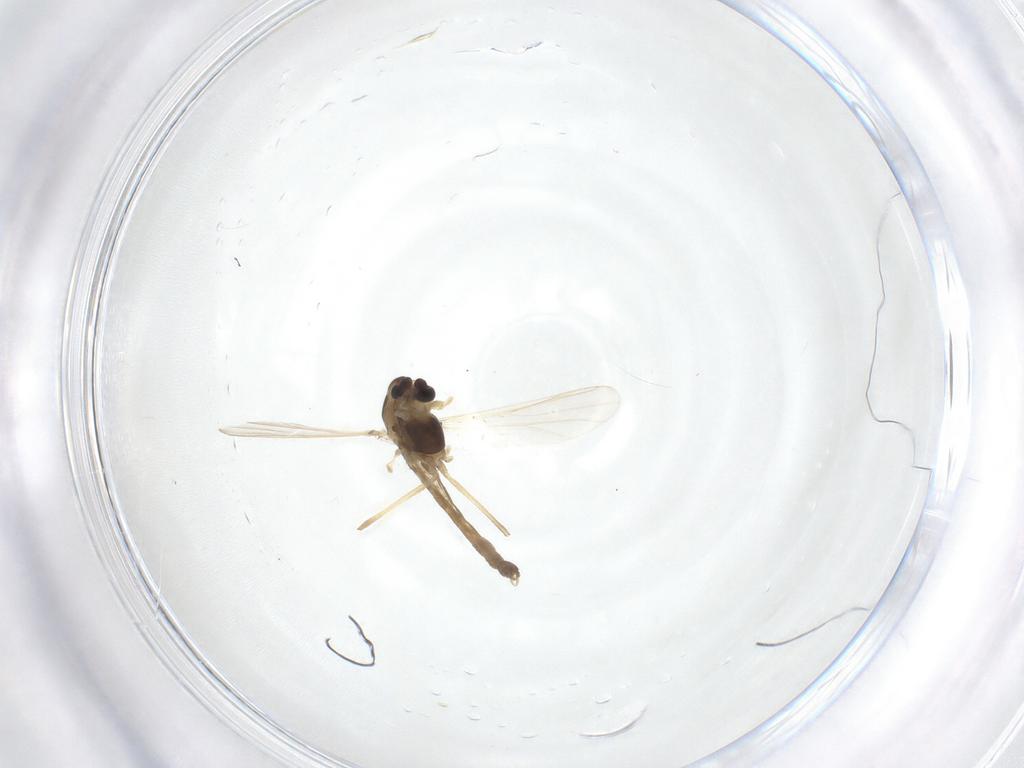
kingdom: Animalia
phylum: Arthropoda
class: Insecta
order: Diptera
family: Chironomidae
